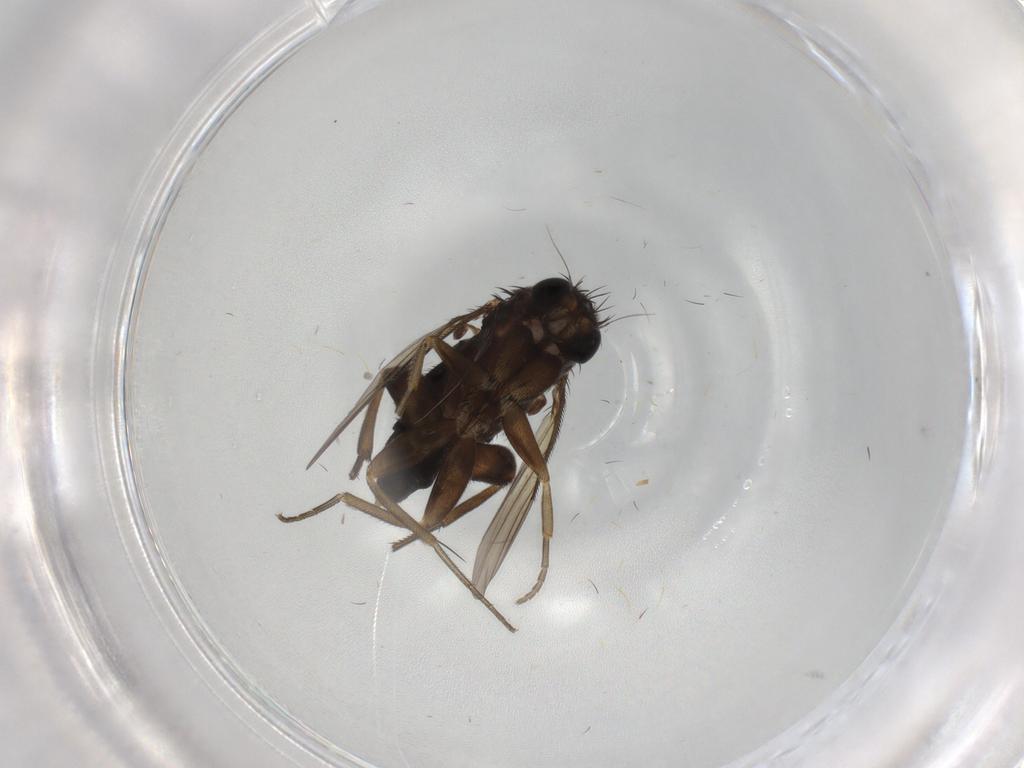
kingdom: Animalia
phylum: Arthropoda
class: Insecta
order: Diptera
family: Phoridae
